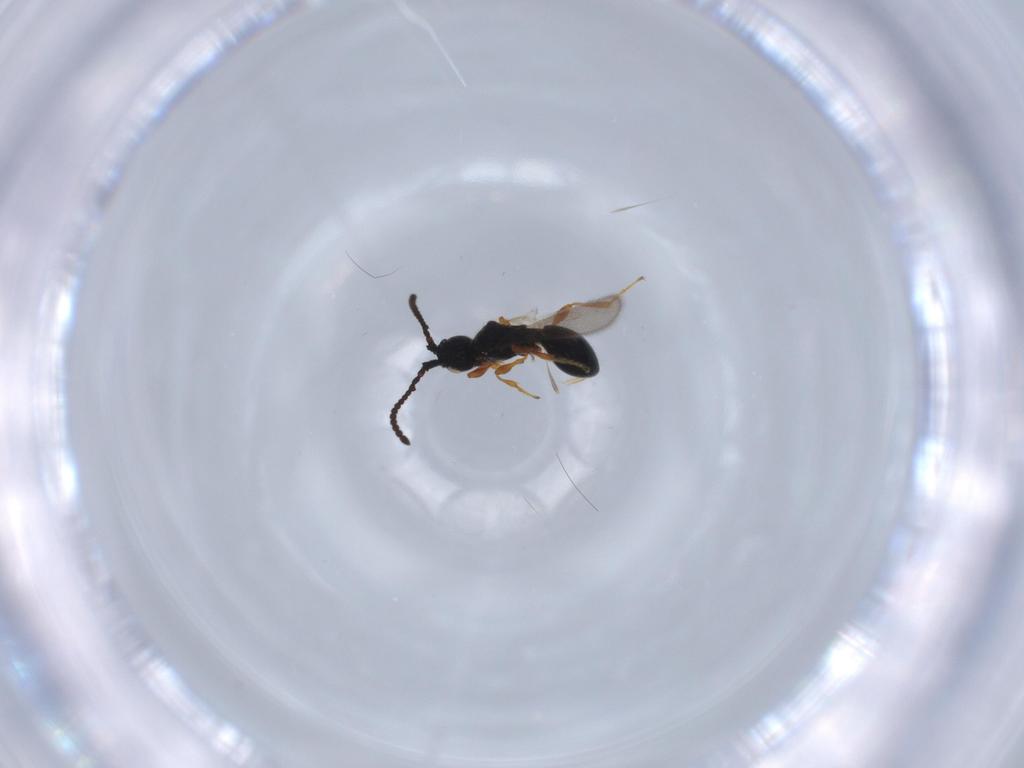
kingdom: Animalia
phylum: Arthropoda
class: Insecta
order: Hymenoptera
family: Diapriidae
